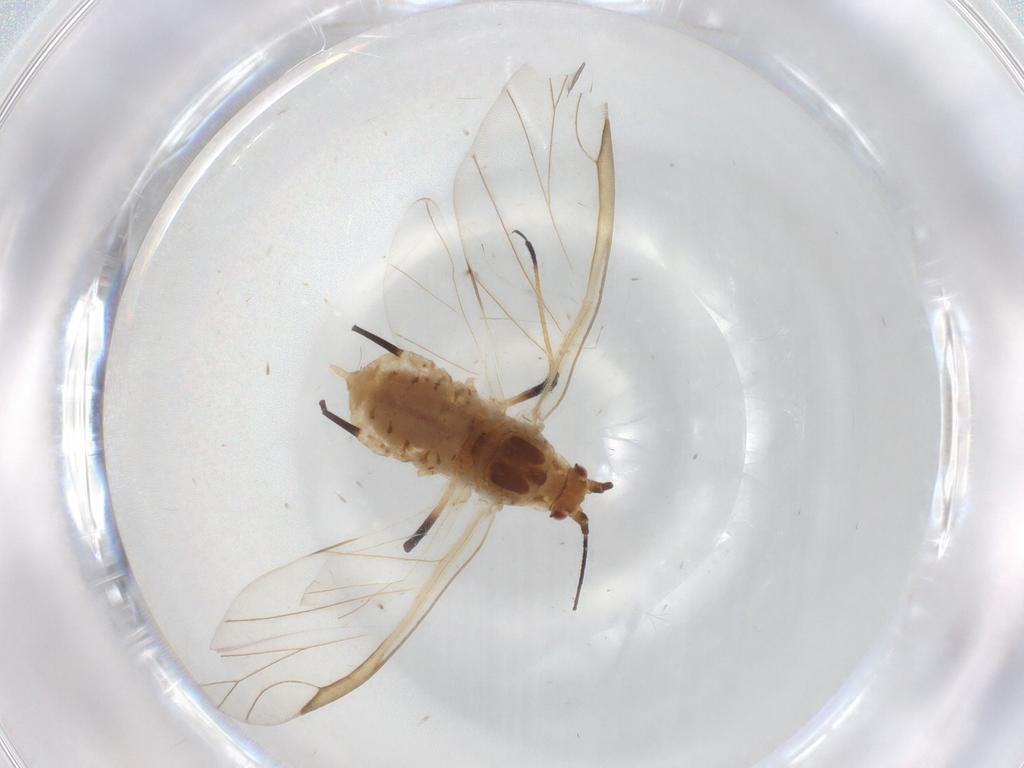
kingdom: Animalia
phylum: Arthropoda
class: Insecta
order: Hemiptera
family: Aphididae
